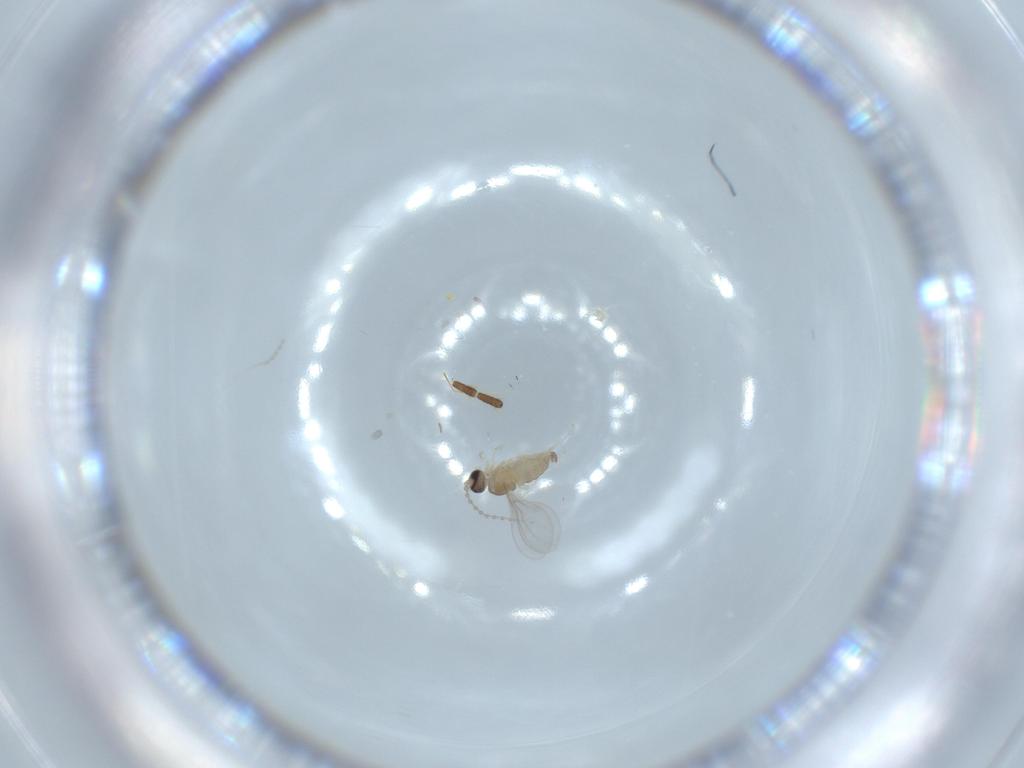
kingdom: Animalia
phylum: Arthropoda
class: Insecta
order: Diptera
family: Cecidomyiidae
